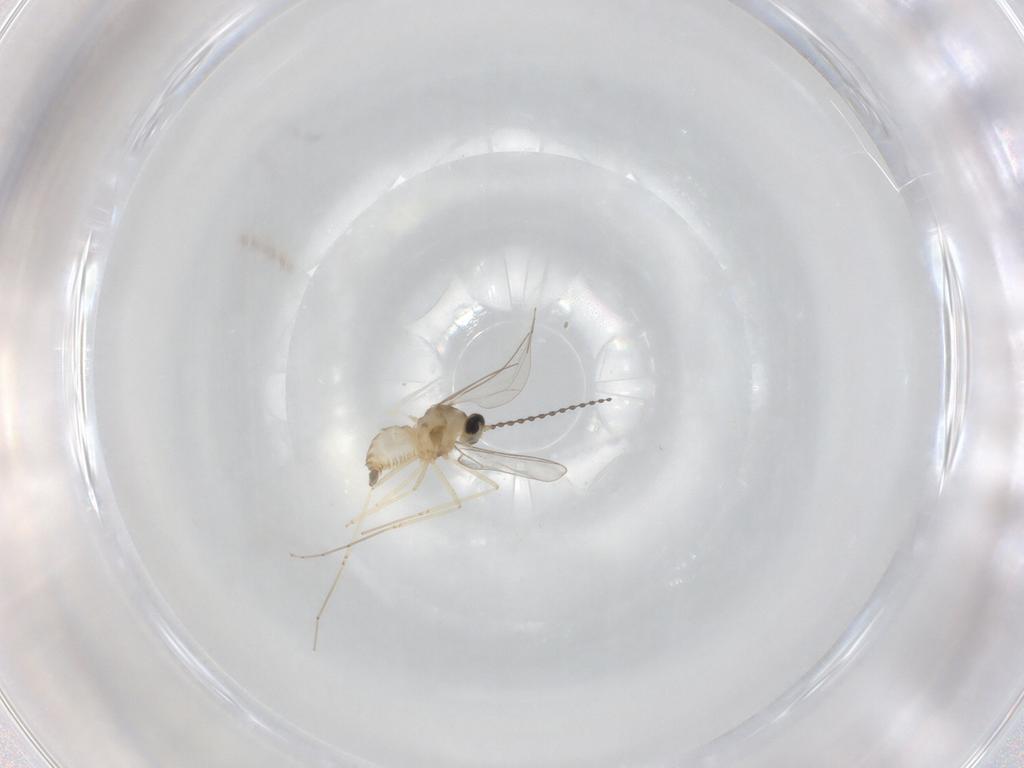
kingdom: Animalia
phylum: Arthropoda
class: Insecta
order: Diptera
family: Cecidomyiidae
